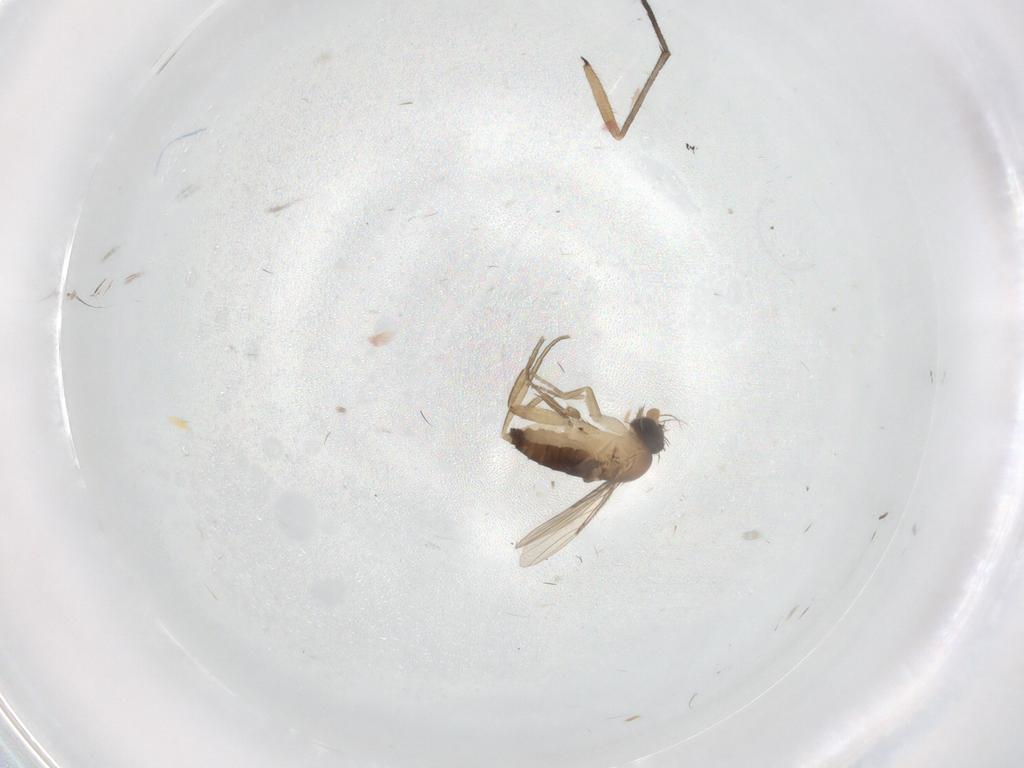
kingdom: Animalia
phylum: Arthropoda
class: Insecta
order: Diptera
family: Phoridae
